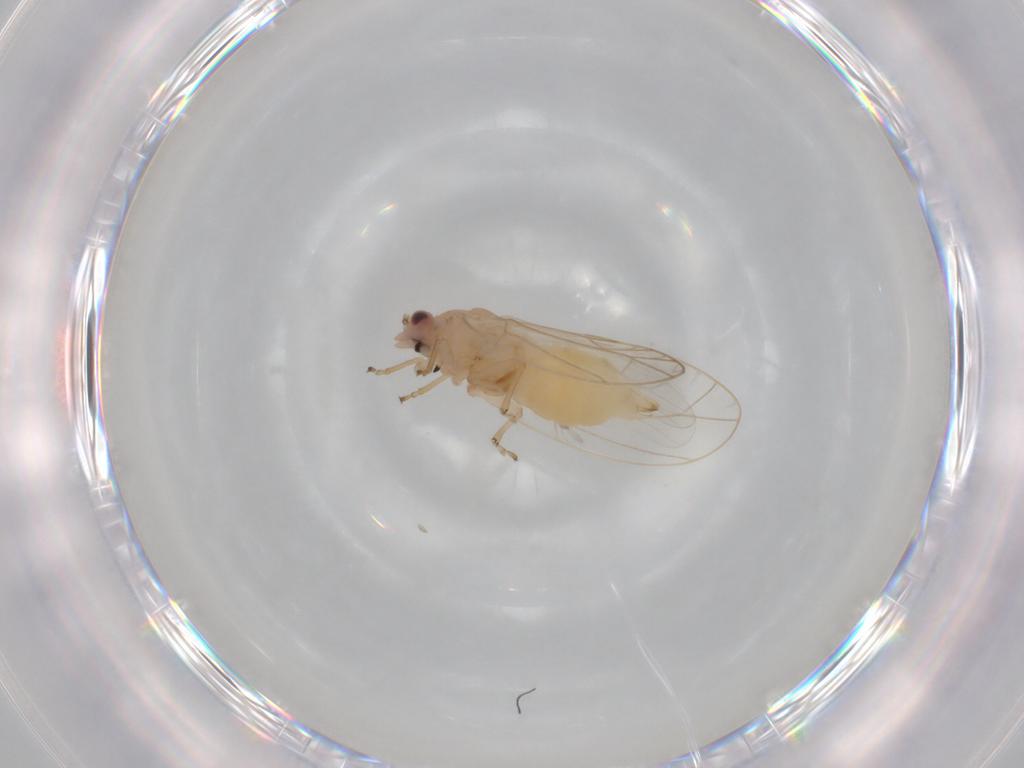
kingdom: Animalia
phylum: Arthropoda
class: Insecta
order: Hemiptera
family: Triozidae
